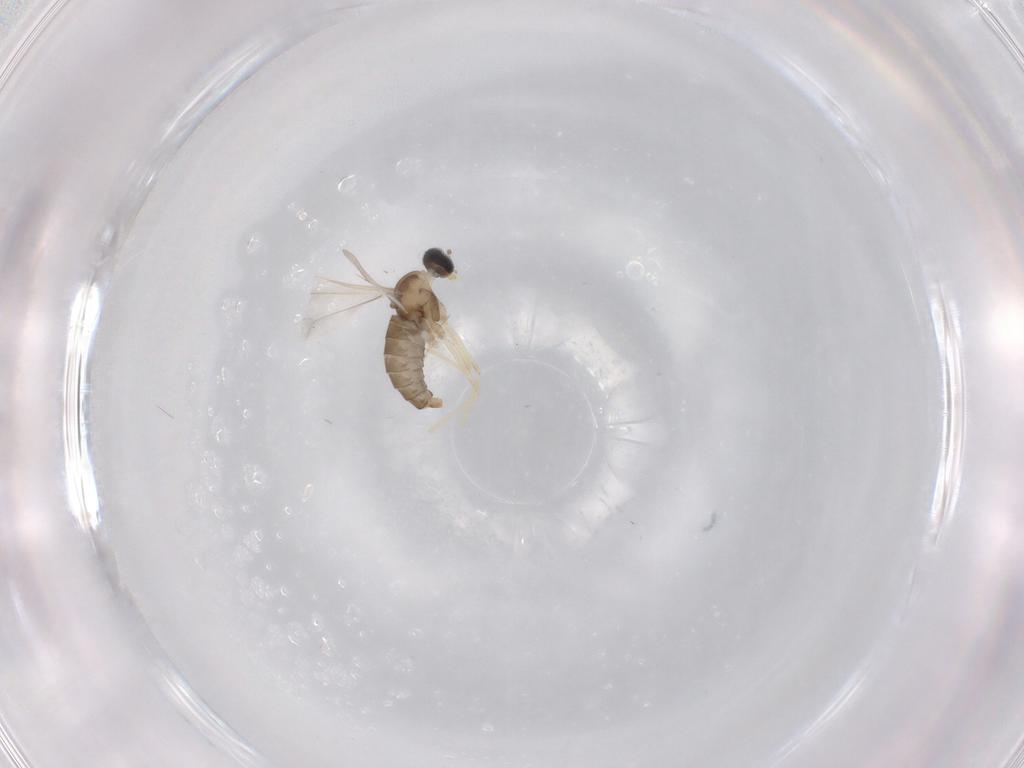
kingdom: Animalia
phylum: Arthropoda
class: Insecta
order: Diptera
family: Cecidomyiidae
